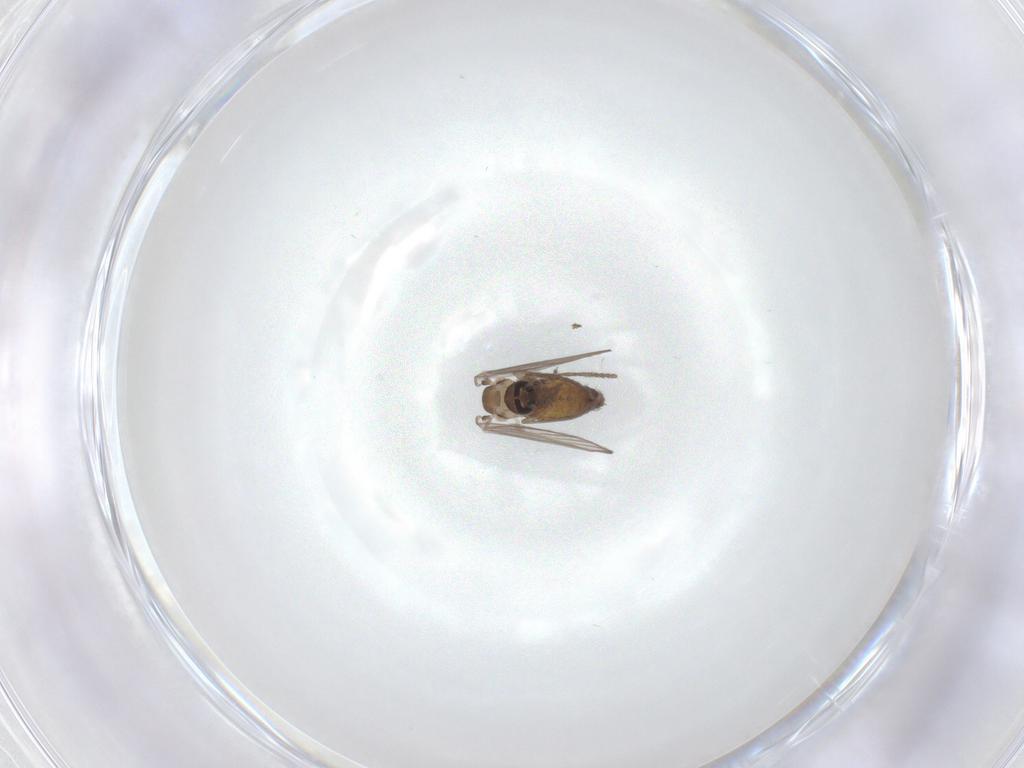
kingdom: Animalia
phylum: Arthropoda
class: Insecta
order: Diptera
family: Psychodidae
